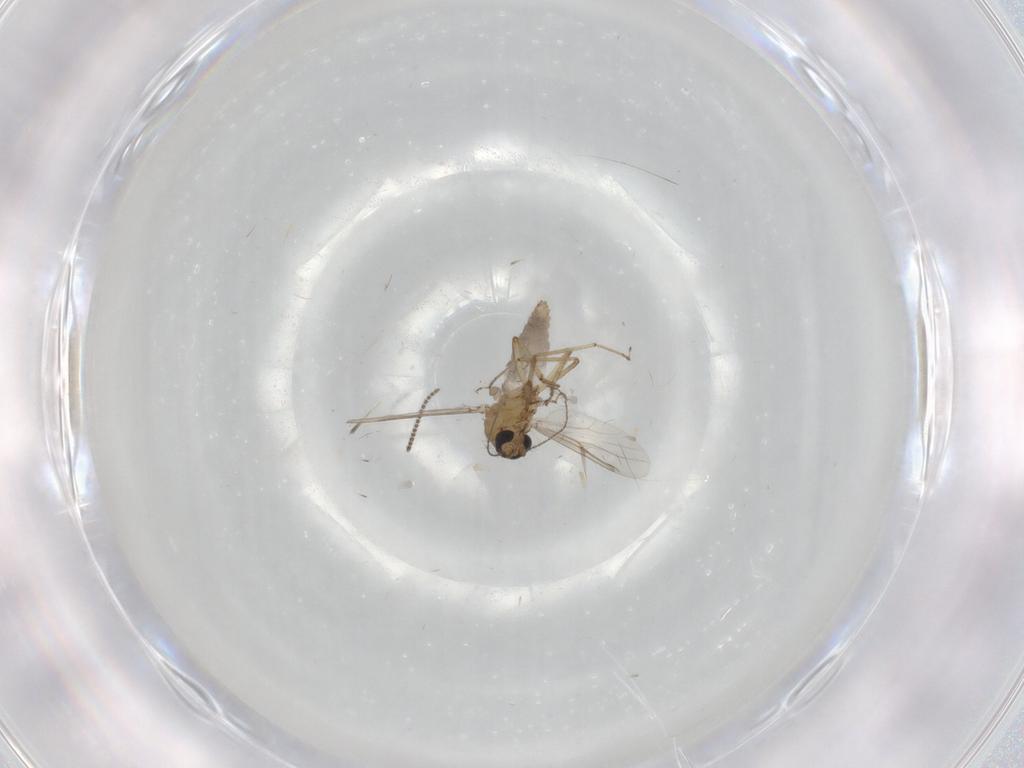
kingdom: Animalia
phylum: Arthropoda
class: Insecta
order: Diptera
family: Ceratopogonidae
